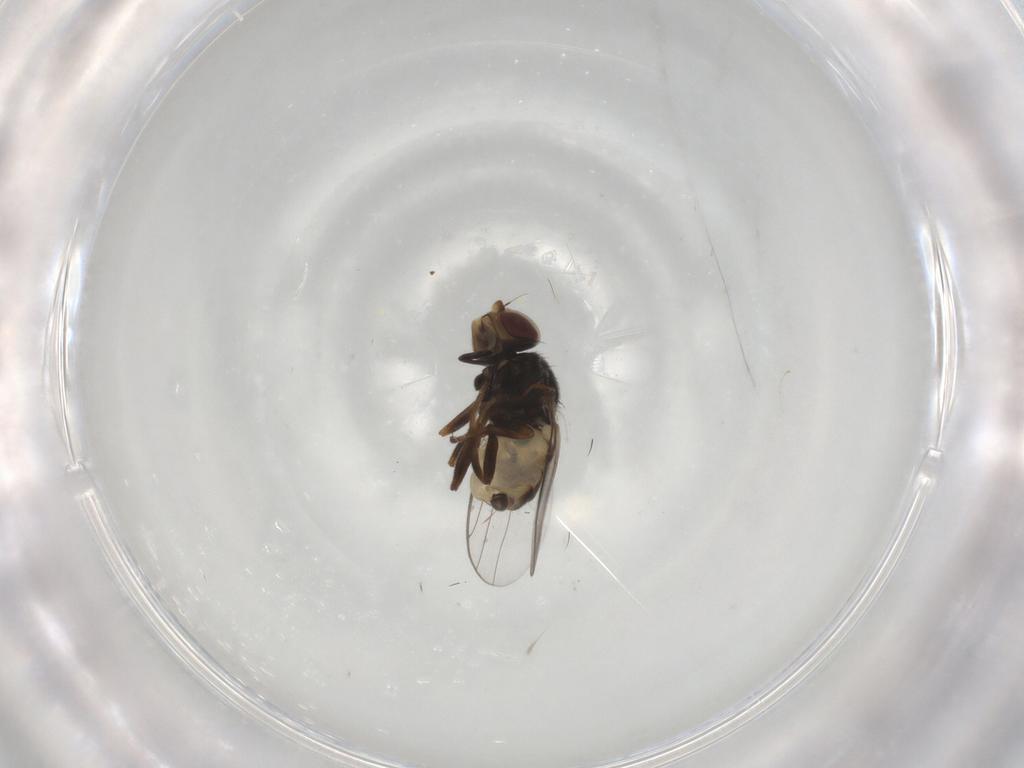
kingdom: Animalia
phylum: Arthropoda
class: Insecta
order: Diptera
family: Chloropidae
